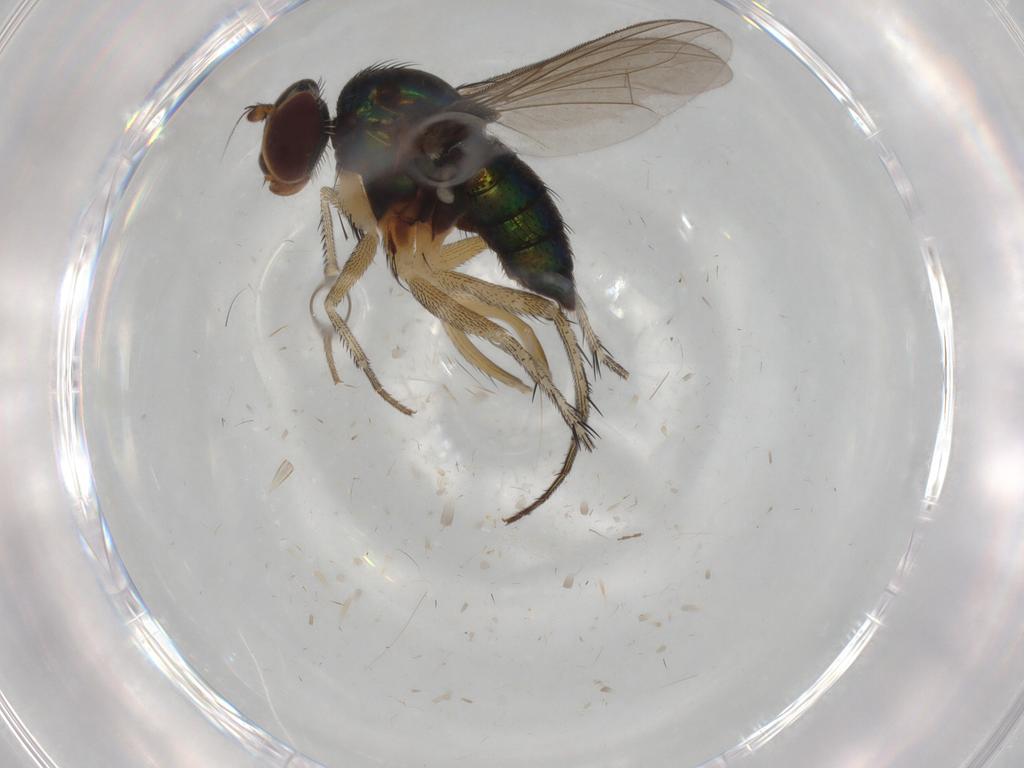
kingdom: Animalia
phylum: Arthropoda
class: Insecta
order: Diptera
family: Dolichopodidae
